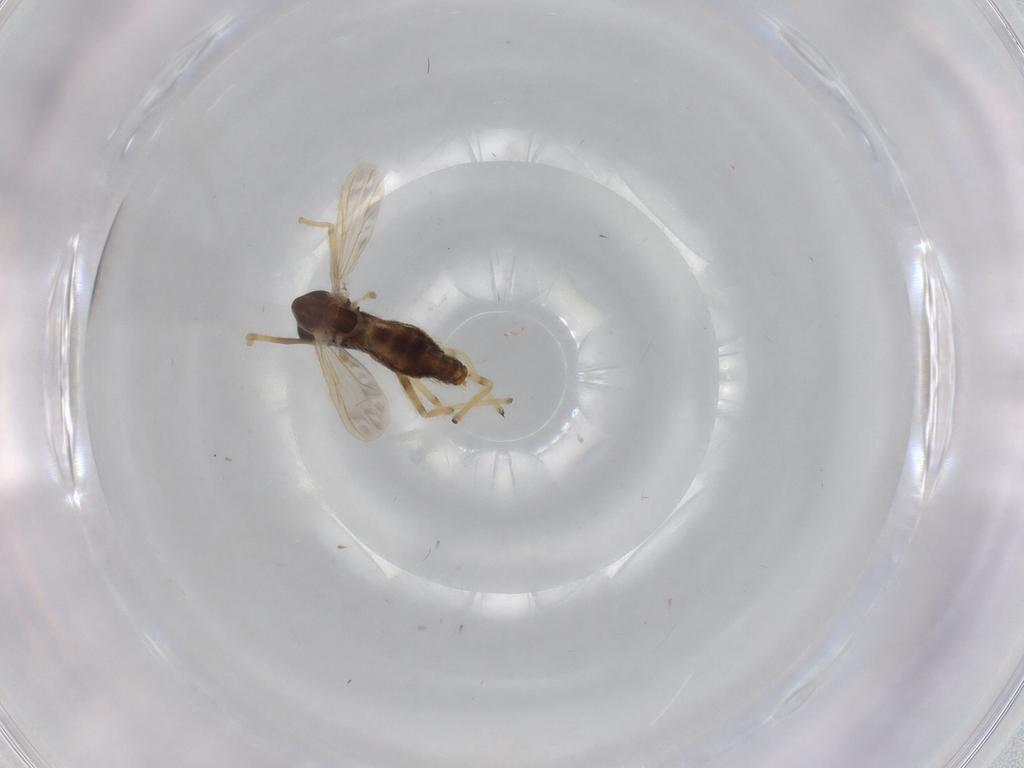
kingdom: Animalia
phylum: Arthropoda
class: Insecta
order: Diptera
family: Chironomidae
